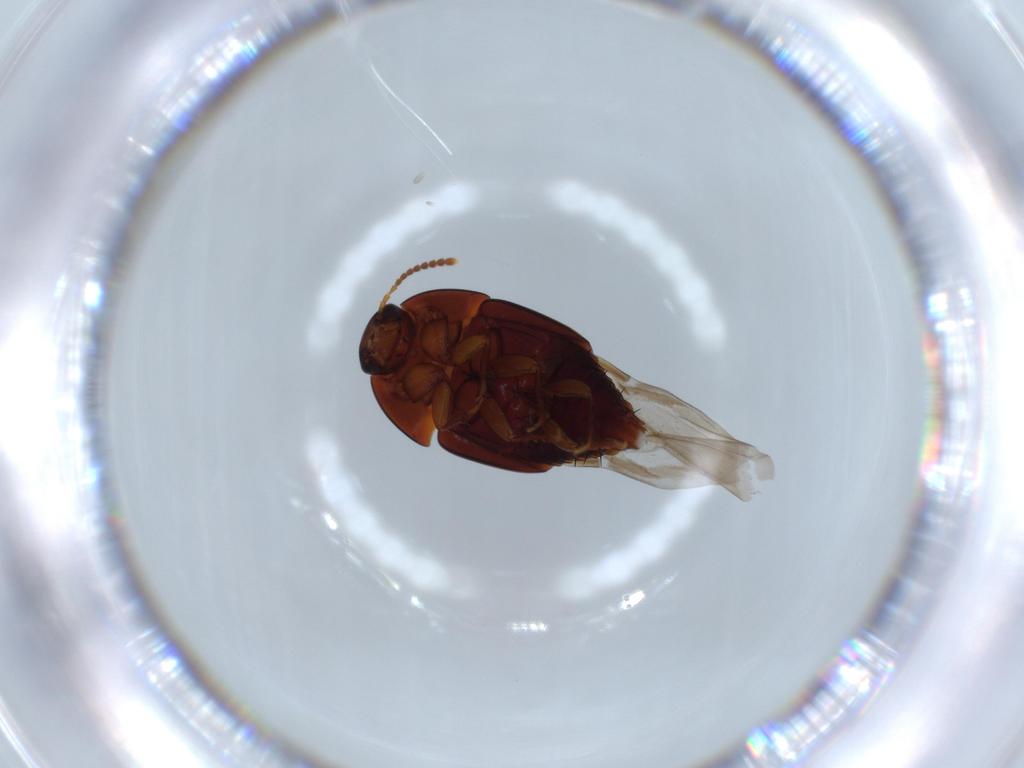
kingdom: Animalia
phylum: Arthropoda
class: Insecta
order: Coleoptera
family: Staphylinidae
